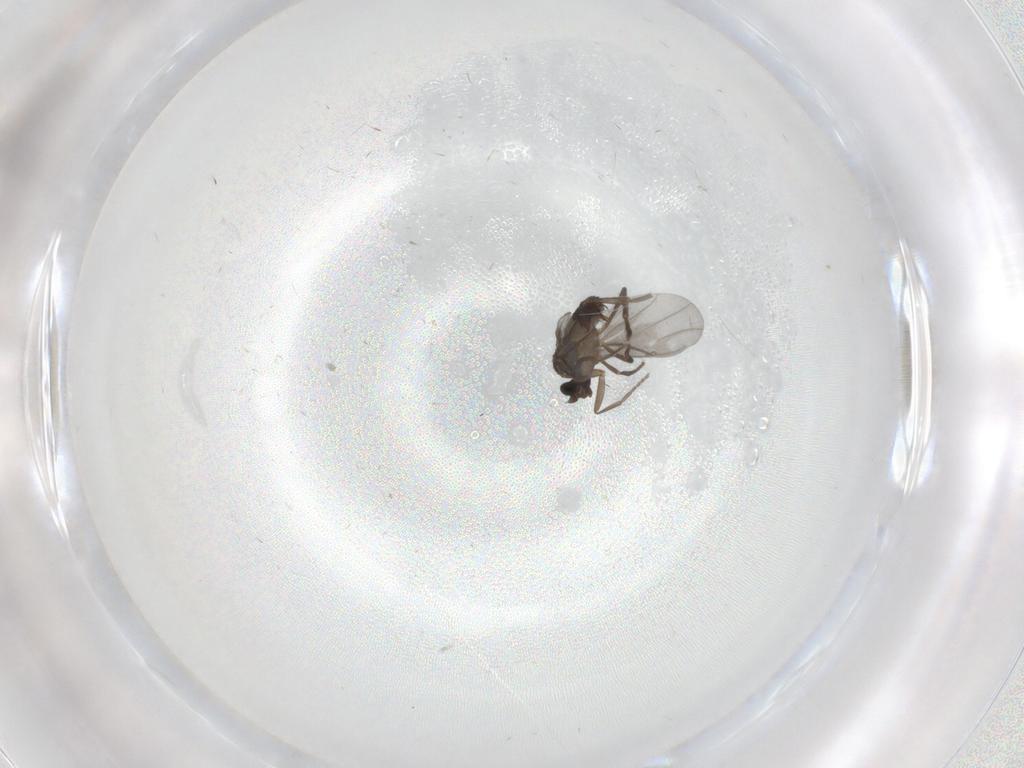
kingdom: Animalia
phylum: Arthropoda
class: Insecta
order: Diptera
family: Phoridae
